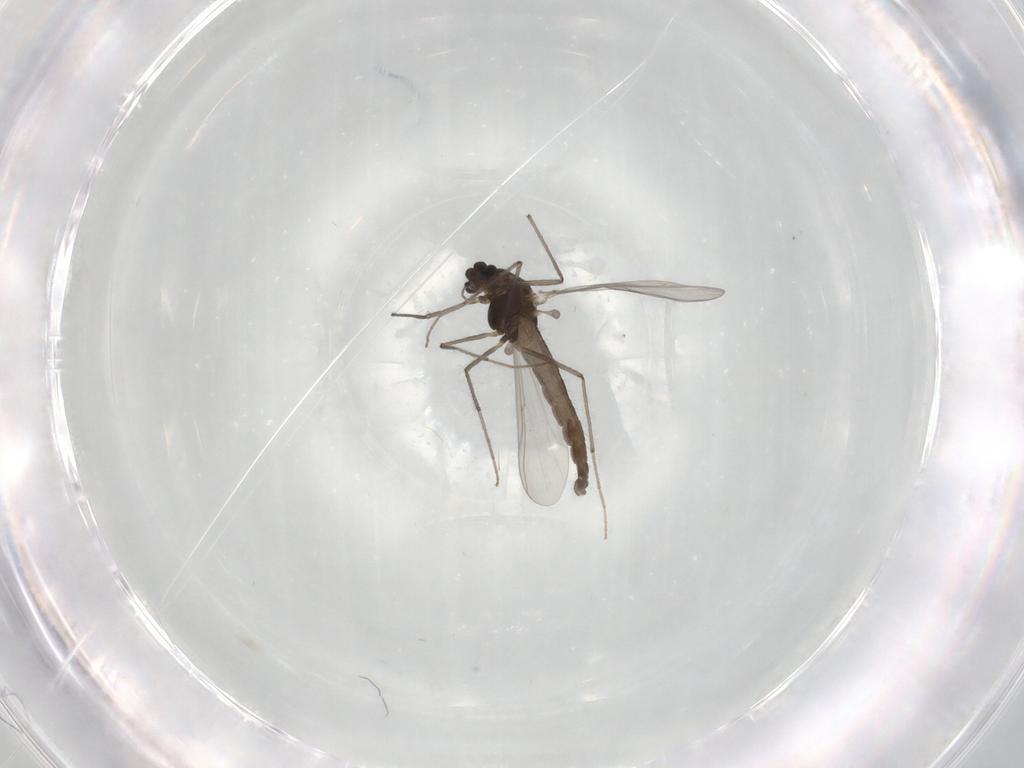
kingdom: Animalia
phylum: Arthropoda
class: Insecta
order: Diptera
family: Chironomidae
